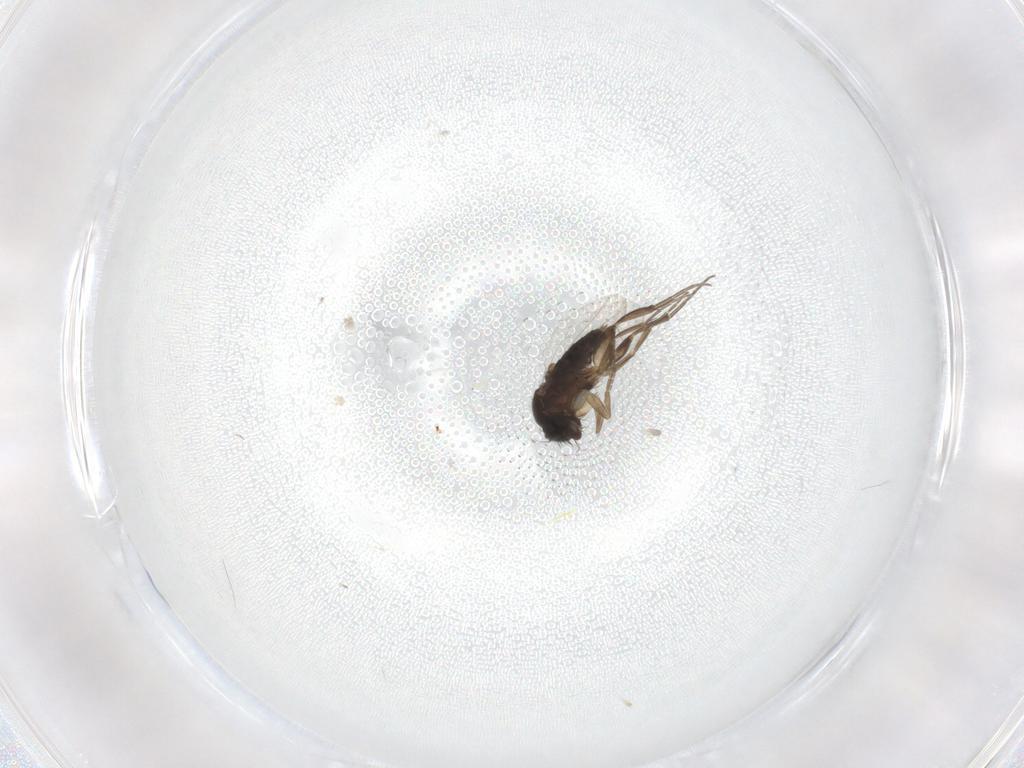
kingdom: Animalia
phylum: Arthropoda
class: Insecta
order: Diptera
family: Phoridae
